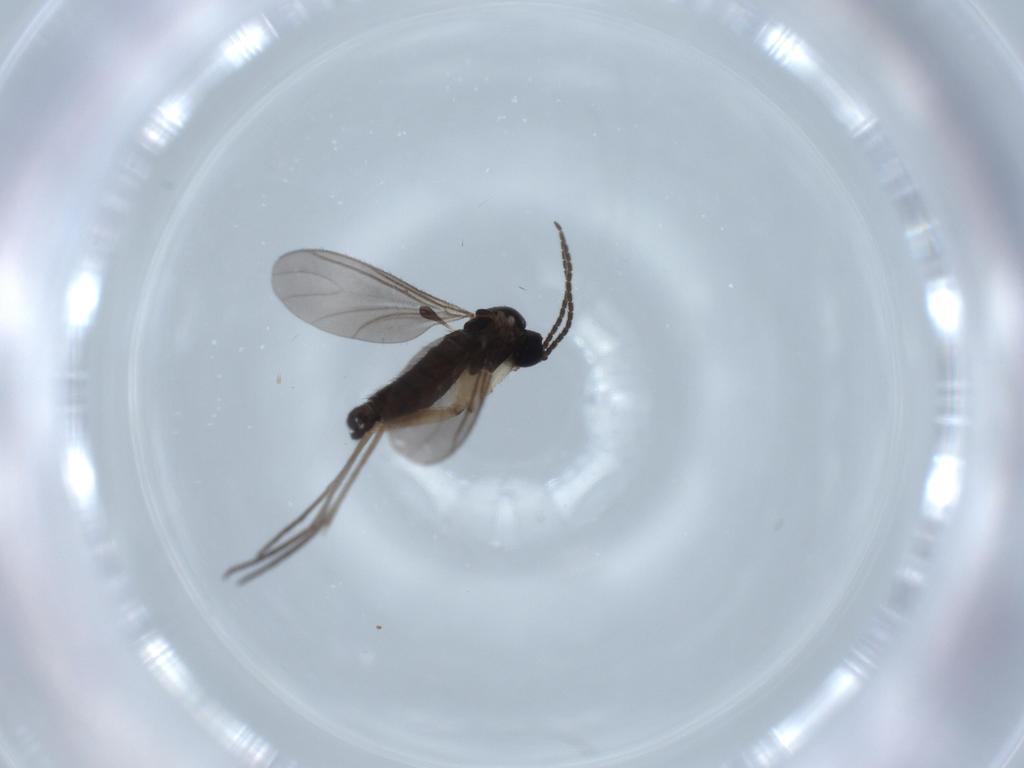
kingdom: Animalia
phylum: Arthropoda
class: Insecta
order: Diptera
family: Sciaridae
